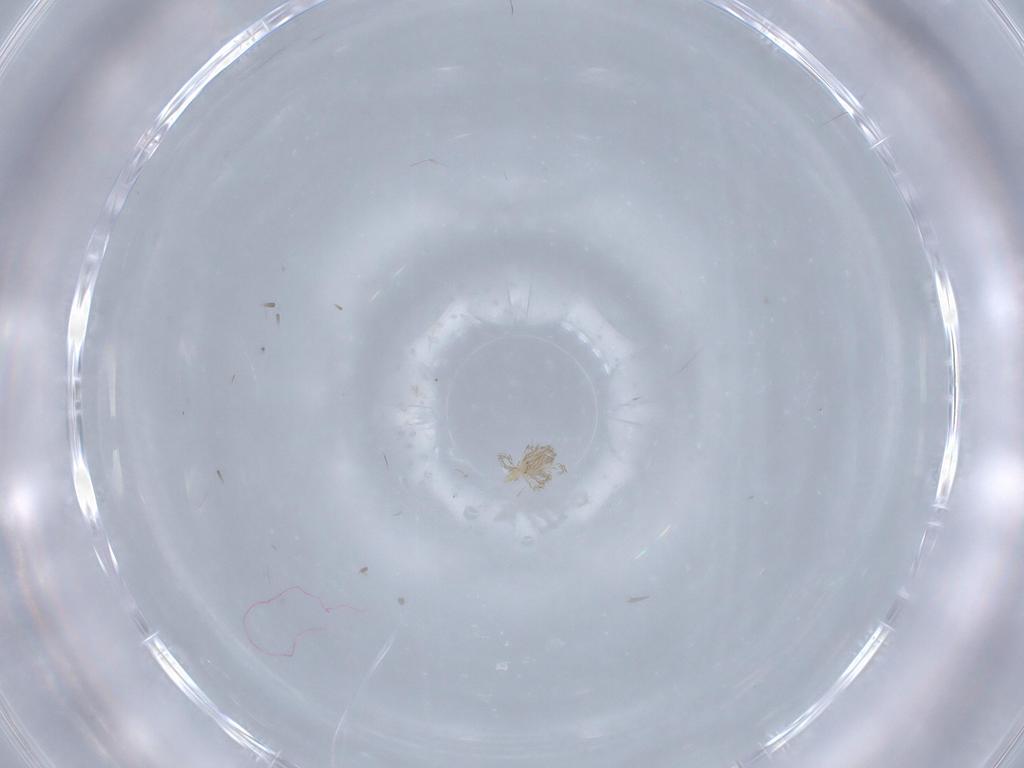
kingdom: Animalia
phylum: Arthropoda
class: Arachnida
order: Trombidiformes
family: Erythraeidae
